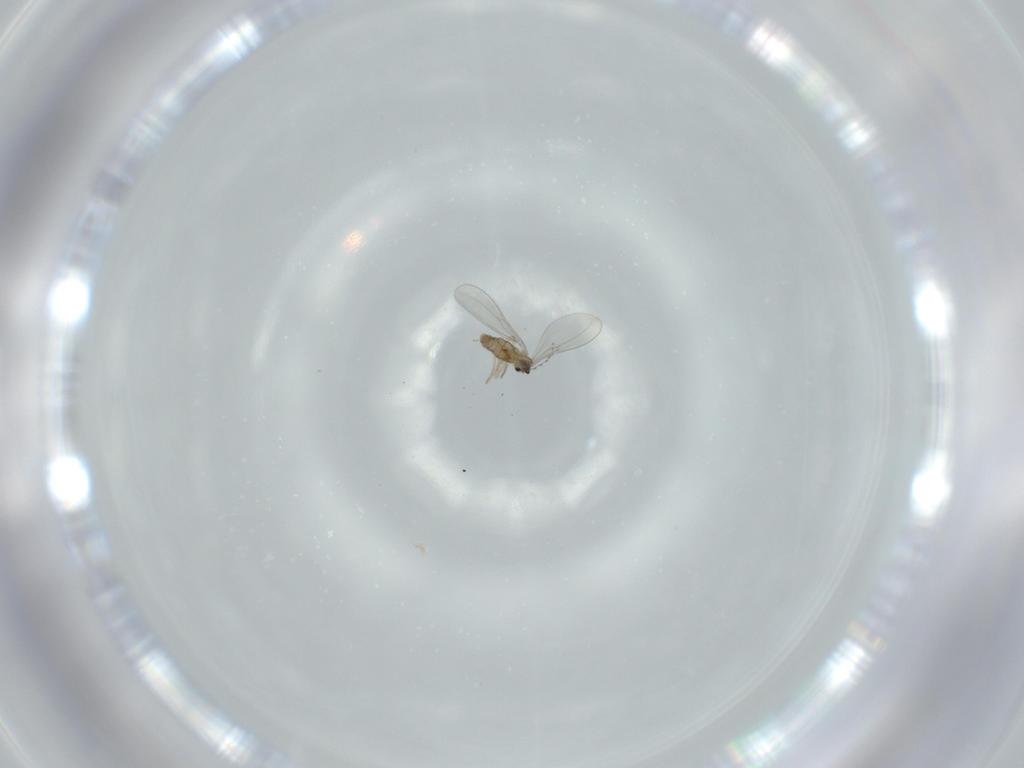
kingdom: Animalia
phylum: Arthropoda
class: Insecta
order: Diptera
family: Cecidomyiidae
